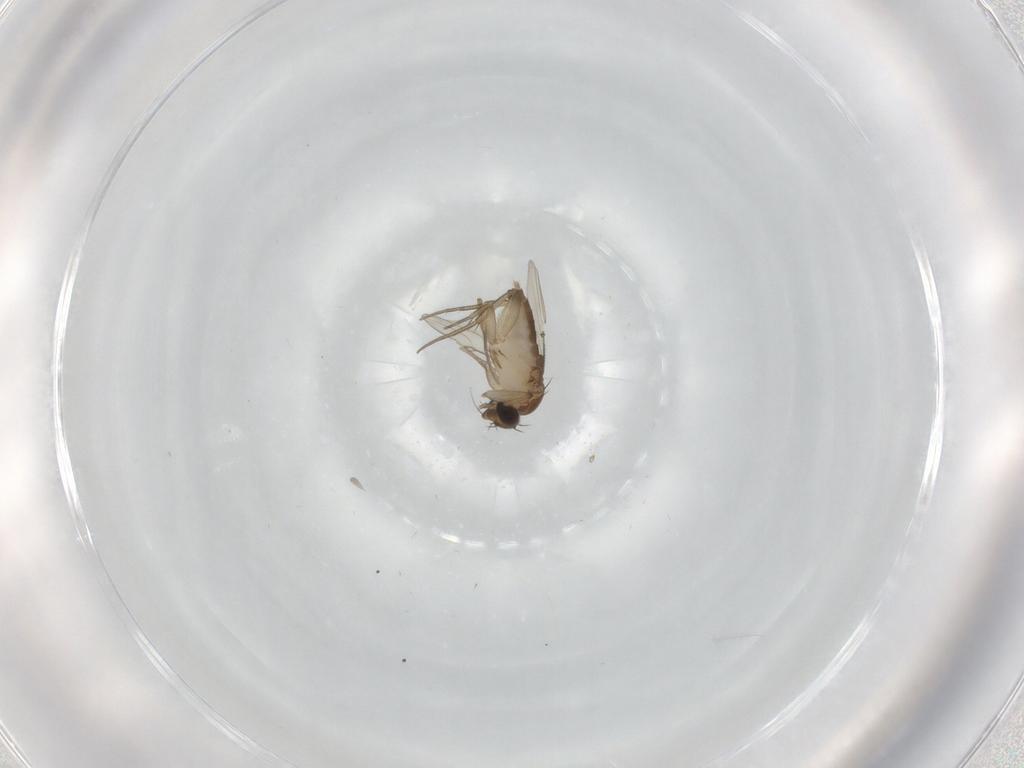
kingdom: Animalia
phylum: Arthropoda
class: Insecta
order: Diptera
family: Phoridae
